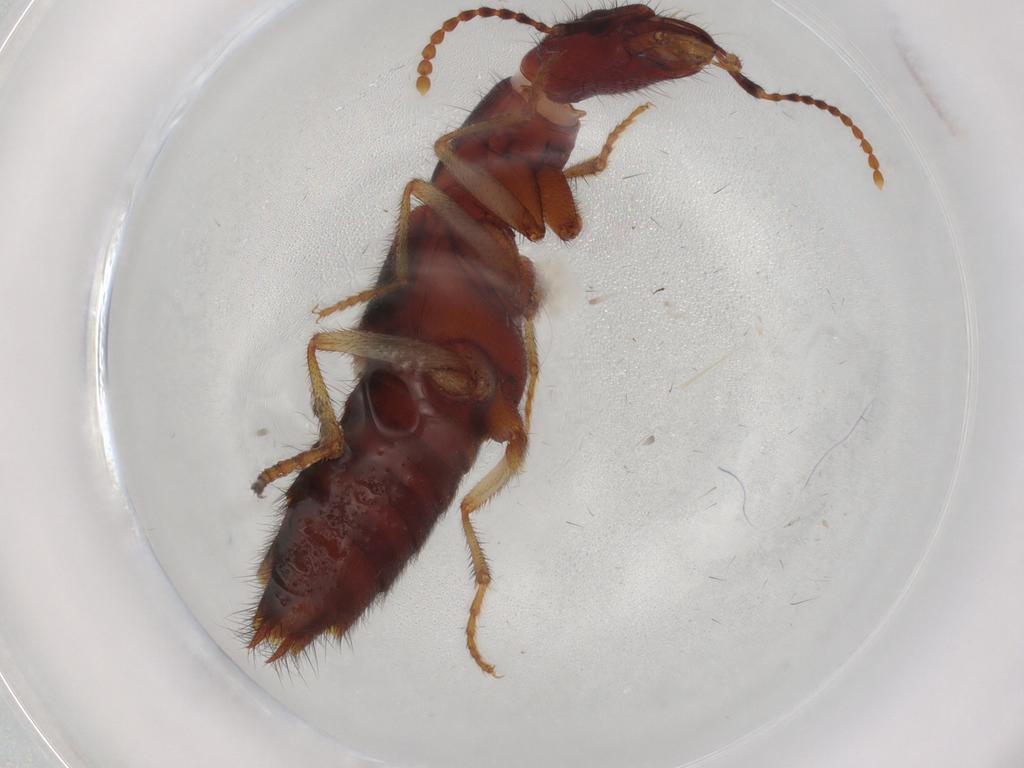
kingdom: Animalia
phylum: Arthropoda
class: Insecta
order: Coleoptera
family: Staphylinidae
